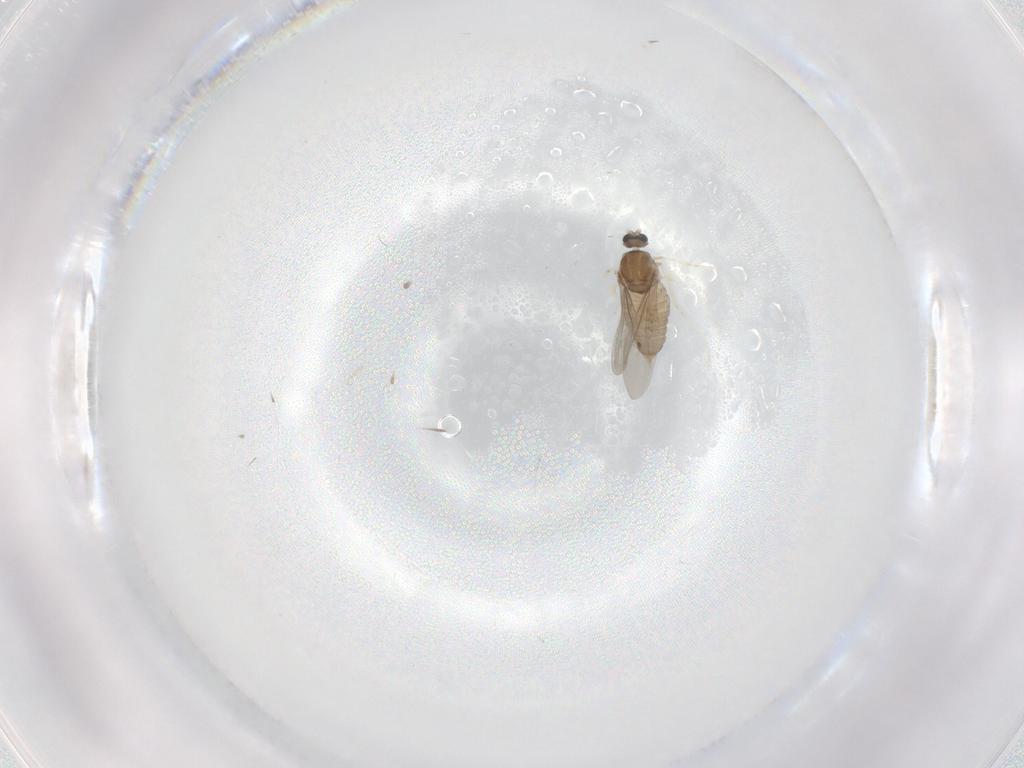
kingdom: Animalia
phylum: Arthropoda
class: Insecta
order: Diptera
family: Cecidomyiidae
